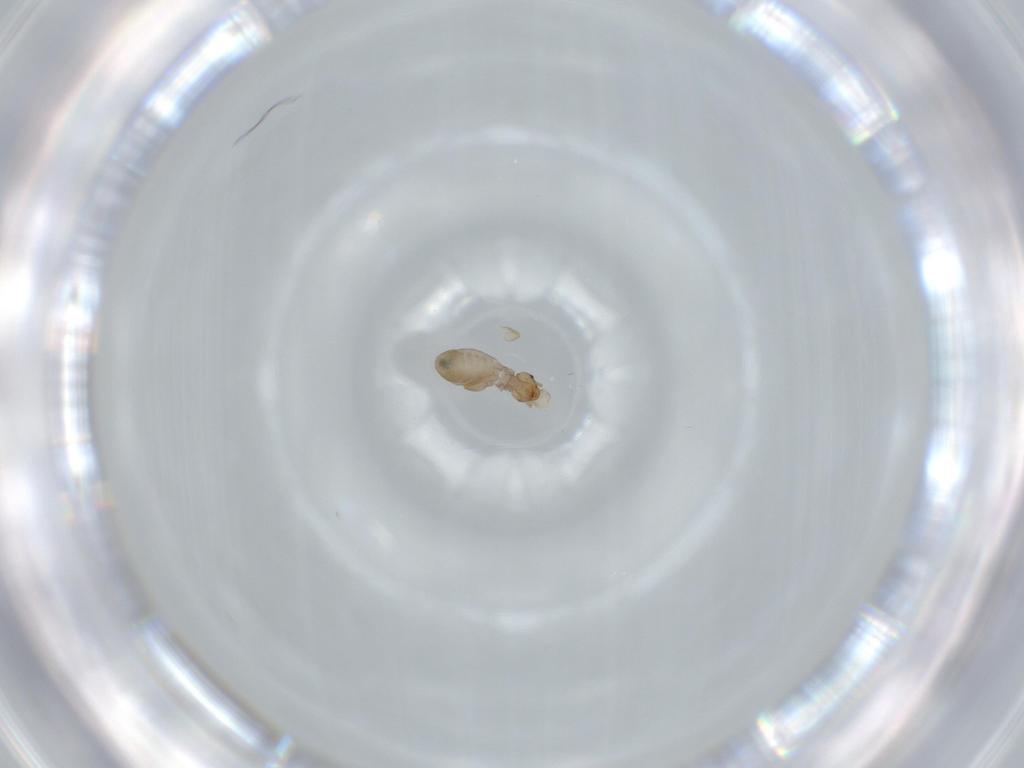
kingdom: Animalia
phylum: Arthropoda
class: Insecta
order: Psocodea
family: Liposcelididae
